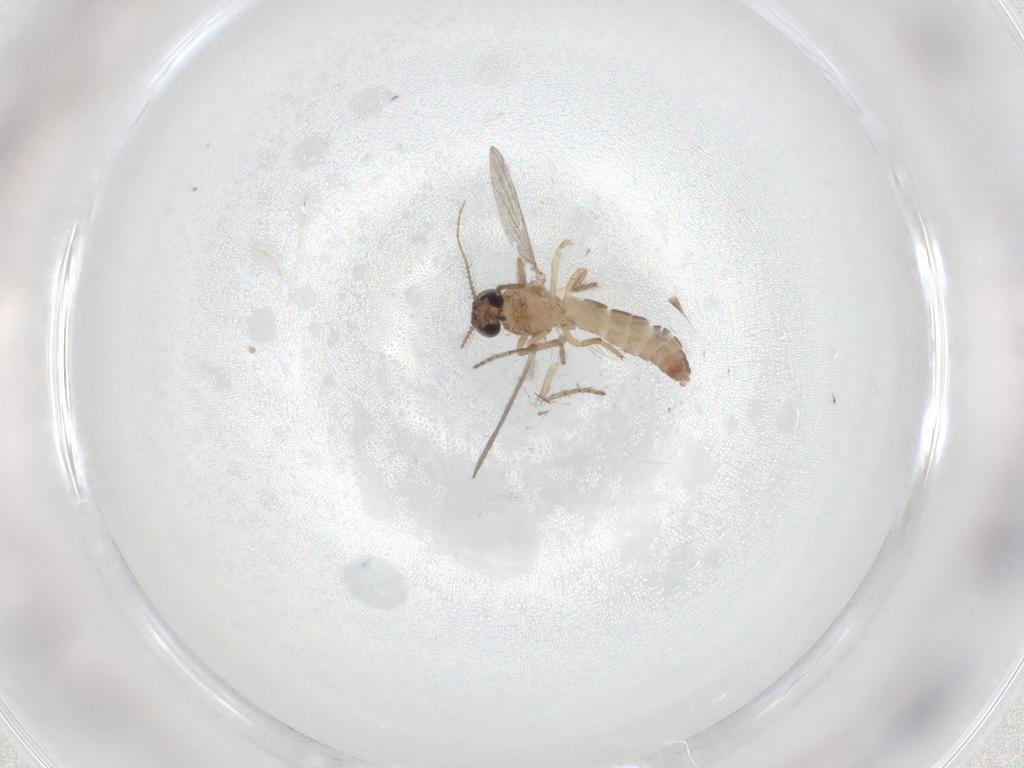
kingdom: Animalia
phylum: Arthropoda
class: Insecta
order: Diptera
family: Ceratopogonidae
